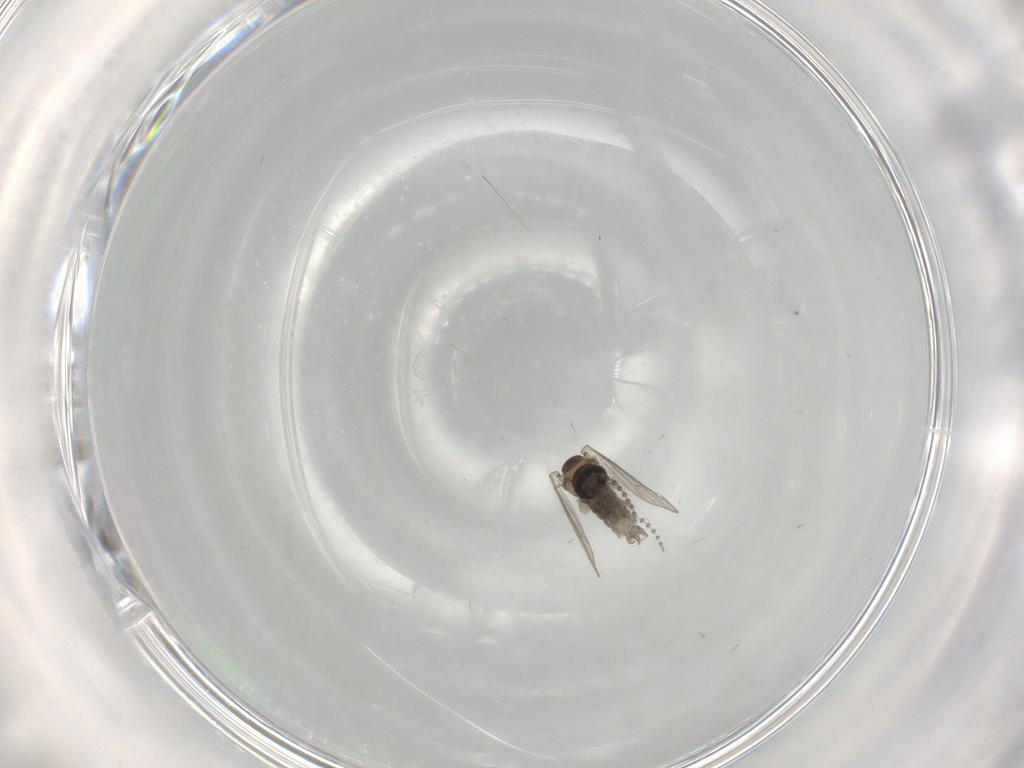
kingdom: Animalia
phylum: Arthropoda
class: Insecta
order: Diptera
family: Psychodidae
